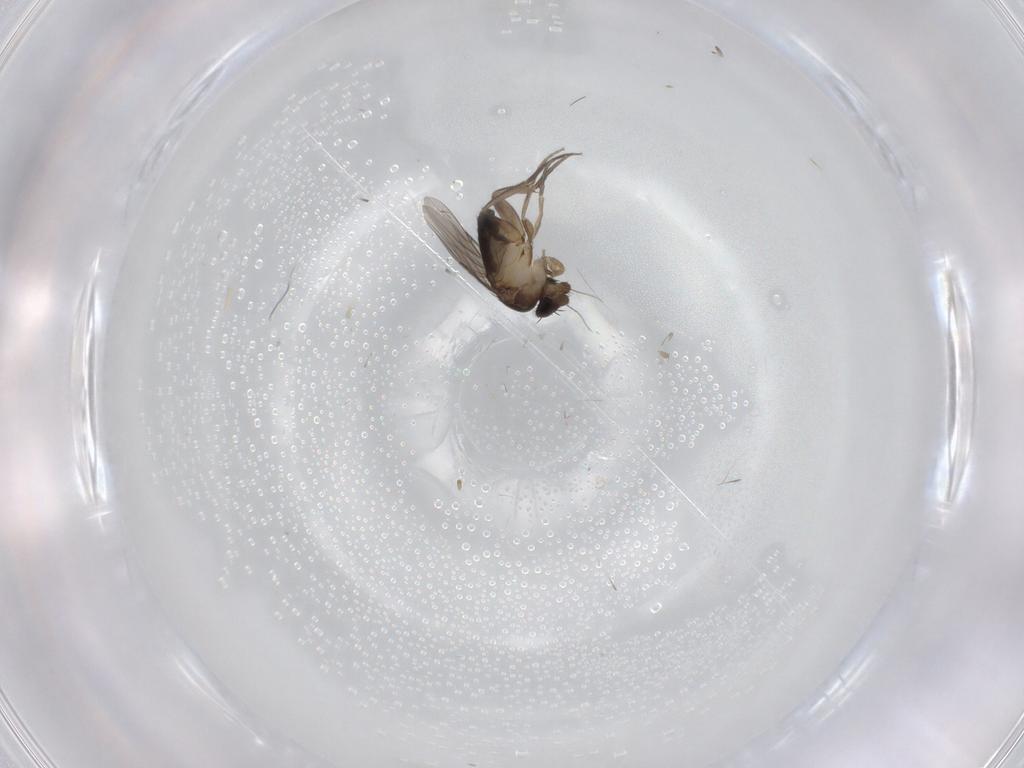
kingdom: Animalia
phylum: Arthropoda
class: Insecta
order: Diptera
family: Phoridae
